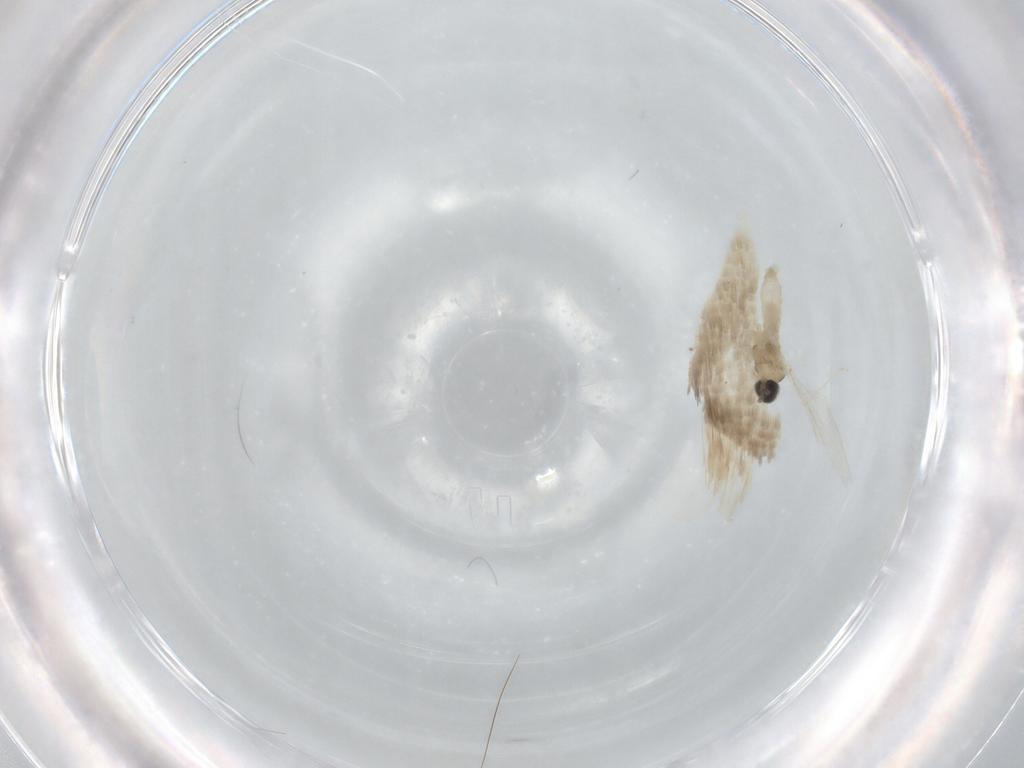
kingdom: Animalia
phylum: Arthropoda
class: Insecta
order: Diptera
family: Cecidomyiidae
